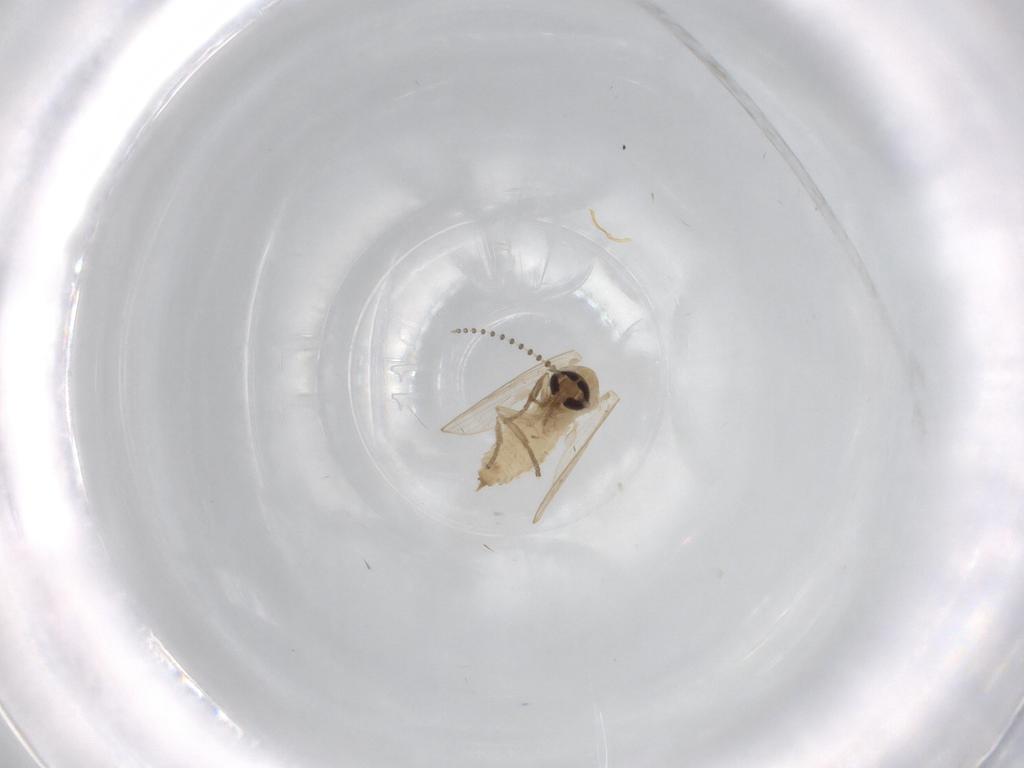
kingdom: Animalia
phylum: Arthropoda
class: Insecta
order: Diptera
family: Psychodidae
